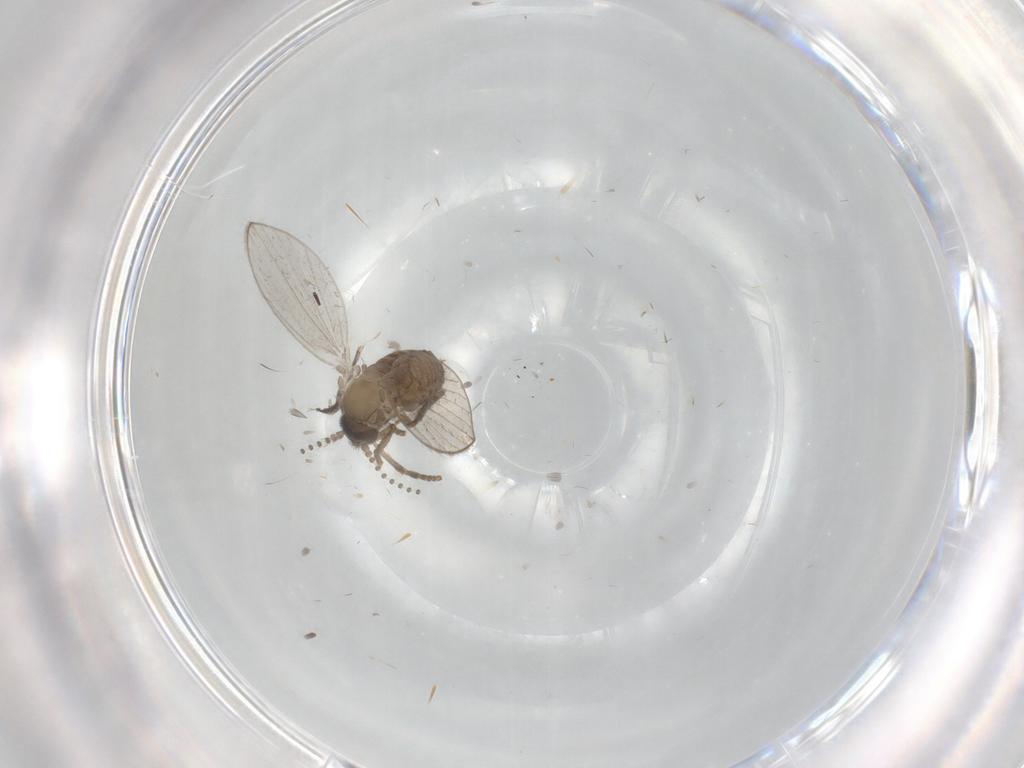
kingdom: Animalia
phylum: Arthropoda
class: Insecta
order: Diptera
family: Psychodidae
